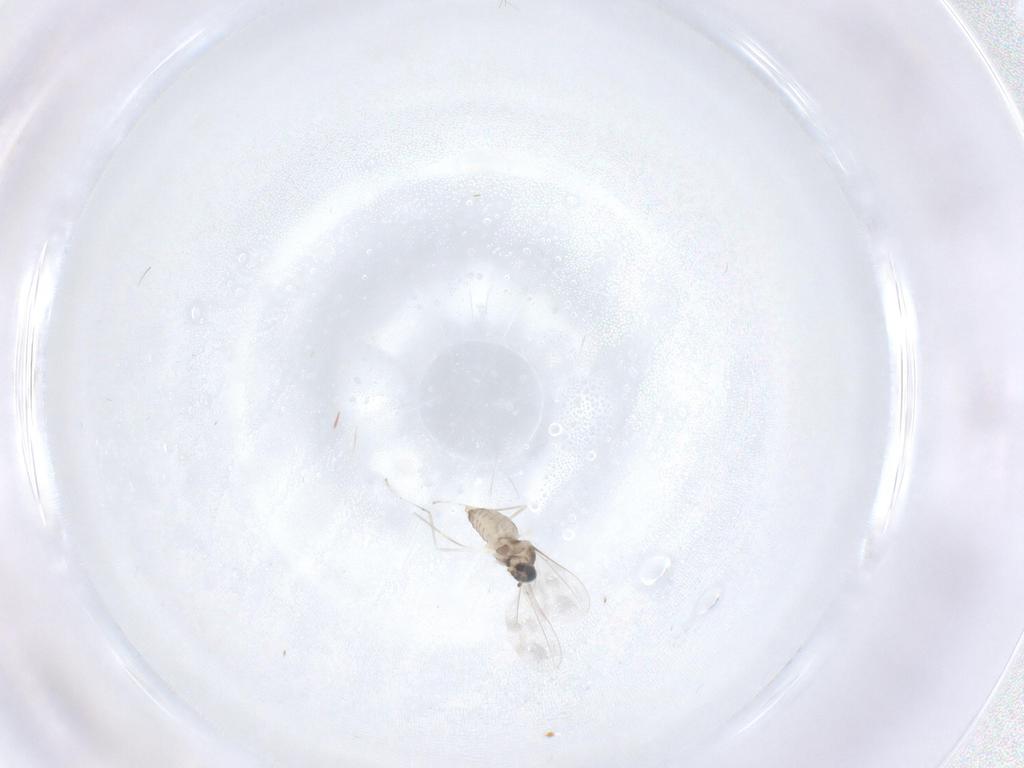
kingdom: Animalia
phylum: Arthropoda
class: Insecta
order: Diptera
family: Cecidomyiidae
